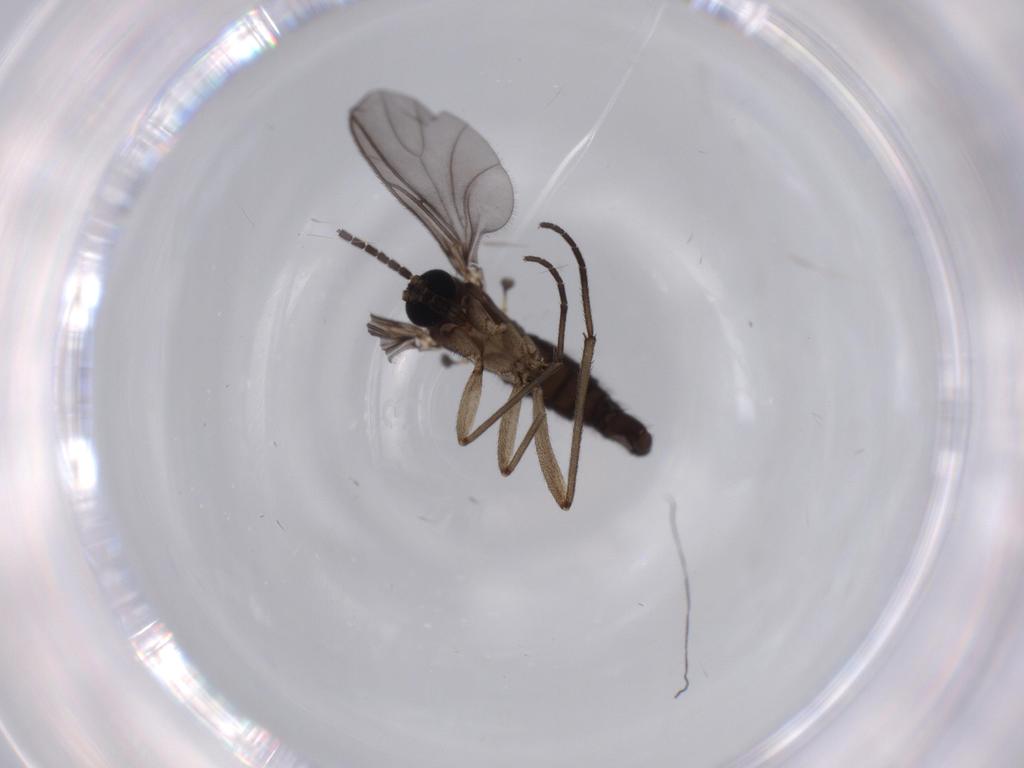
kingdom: Animalia
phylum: Arthropoda
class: Insecta
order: Diptera
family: Sciaridae
